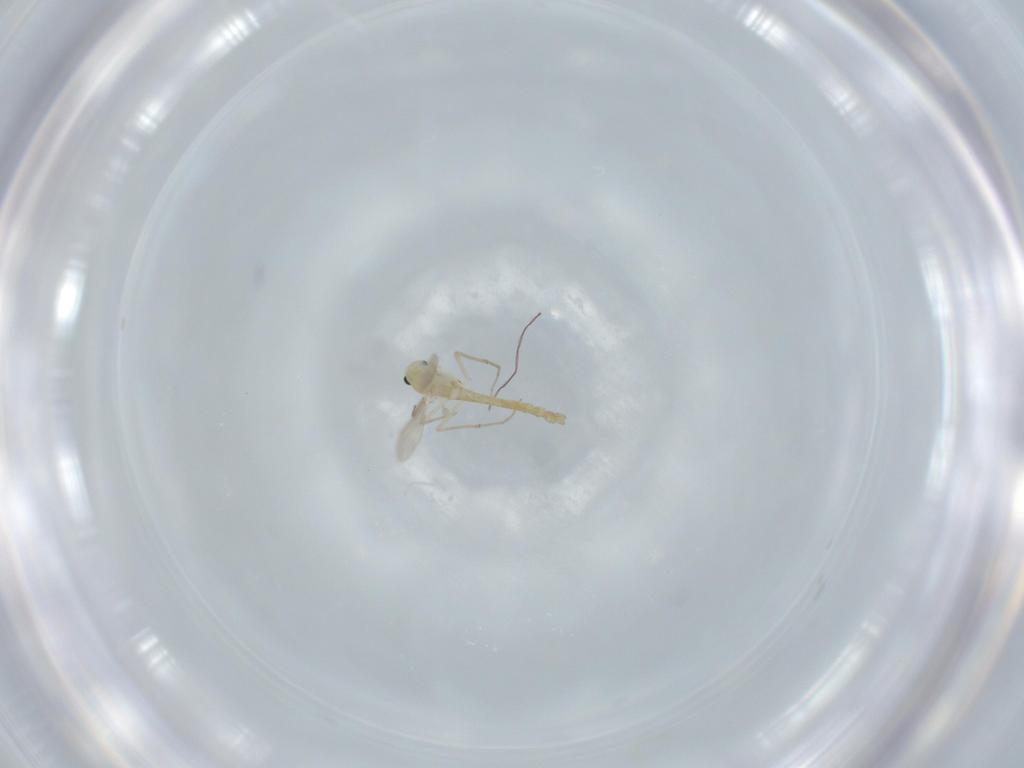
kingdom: Animalia
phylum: Arthropoda
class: Insecta
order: Diptera
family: Chironomidae
